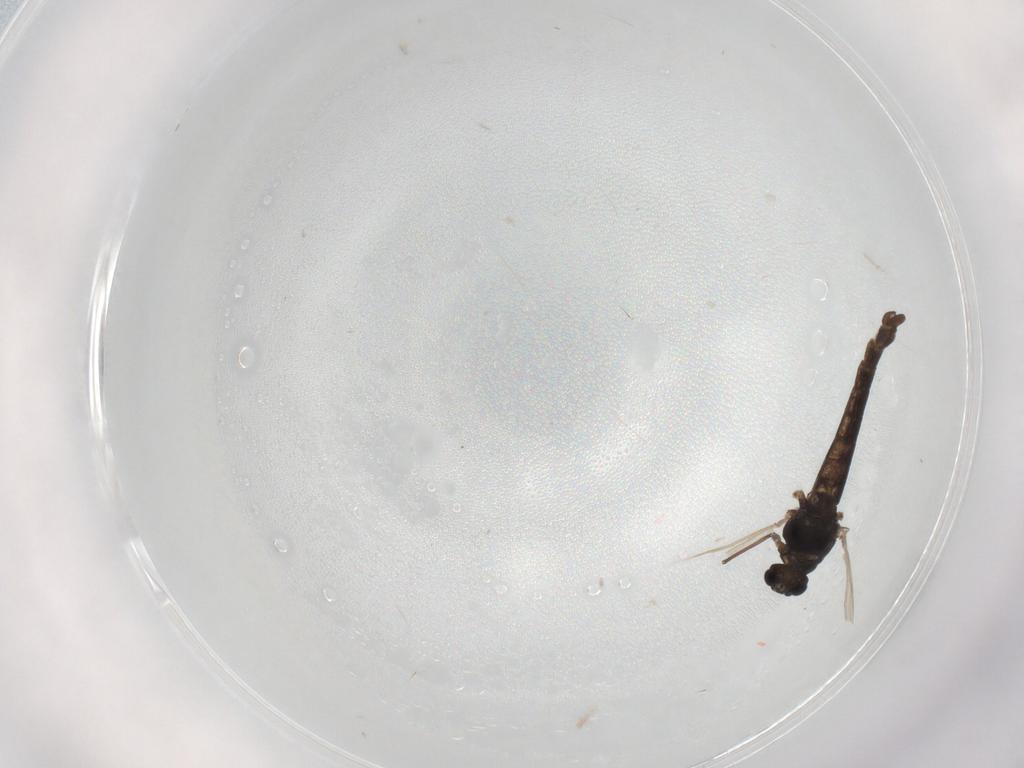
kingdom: Animalia
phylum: Arthropoda
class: Insecta
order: Diptera
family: Chironomidae
